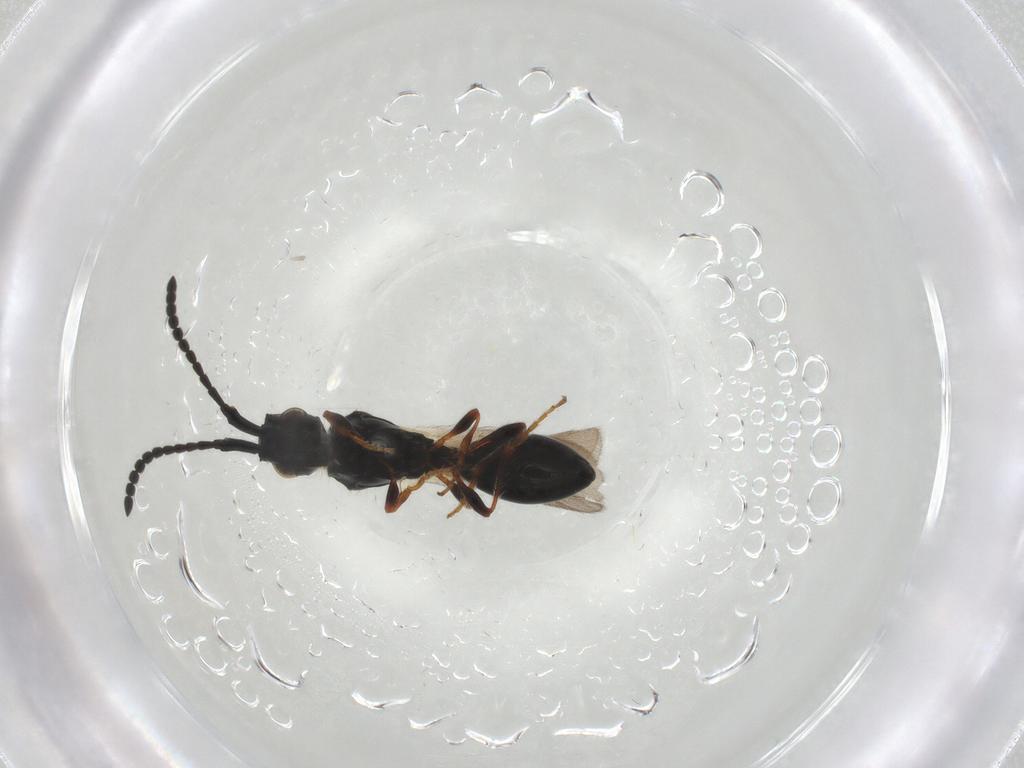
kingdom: Animalia
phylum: Arthropoda
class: Insecta
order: Hymenoptera
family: Diapriidae
